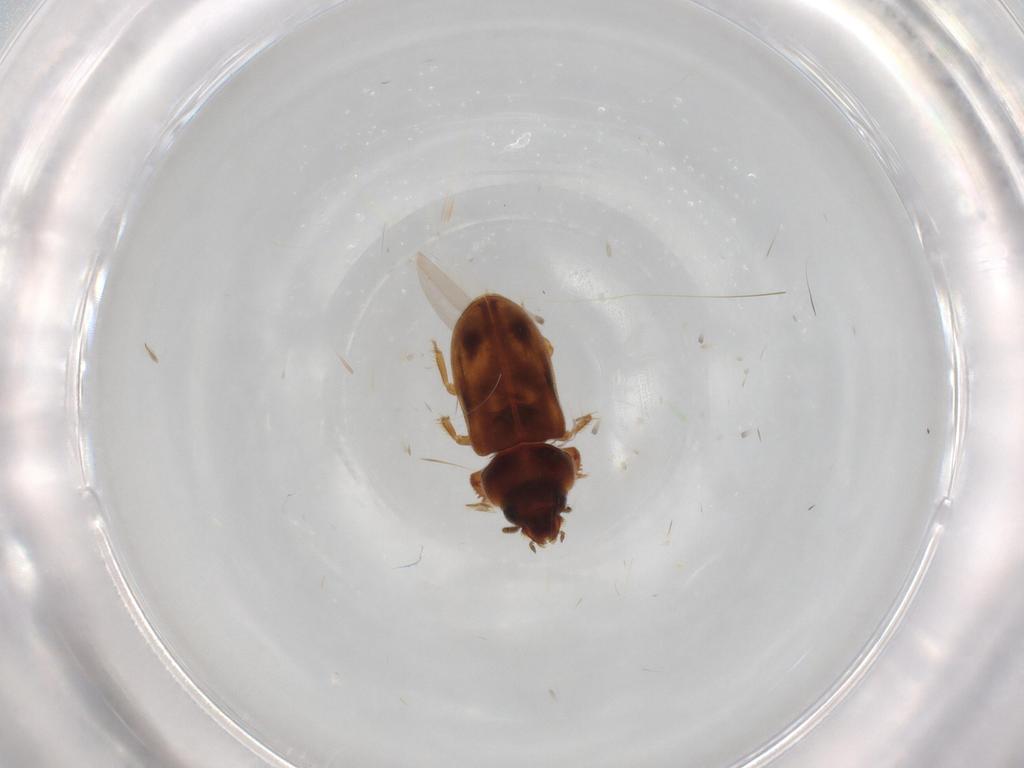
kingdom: Animalia
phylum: Arthropoda
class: Insecta
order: Coleoptera
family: Heteroceridae
